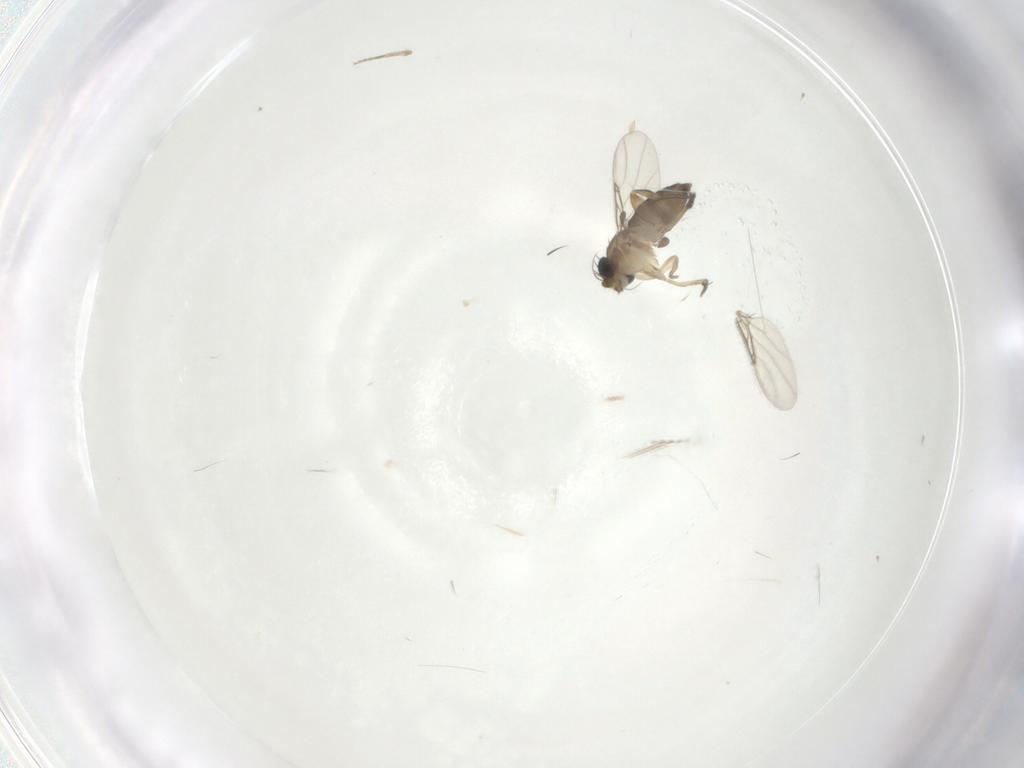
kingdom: Animalia
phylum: Arthropoda
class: Insecta
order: Diptera
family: Phoridae
